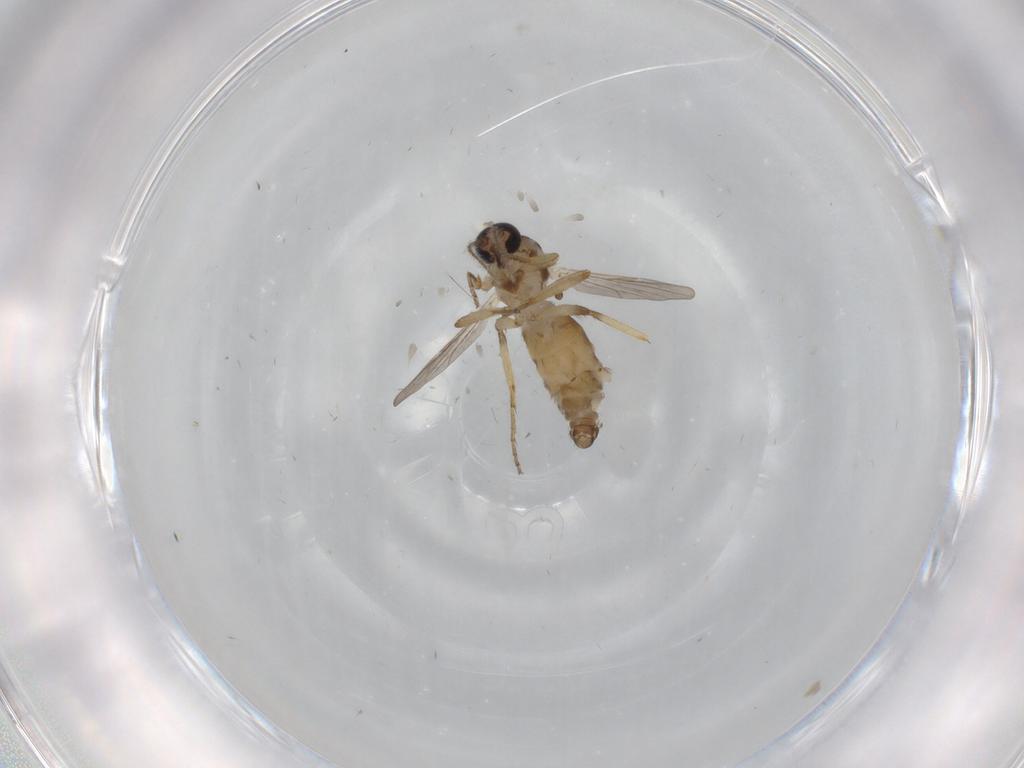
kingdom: Animalia
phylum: Arthropoda
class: Insecta
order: Diptera
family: Ceratopogonidae
